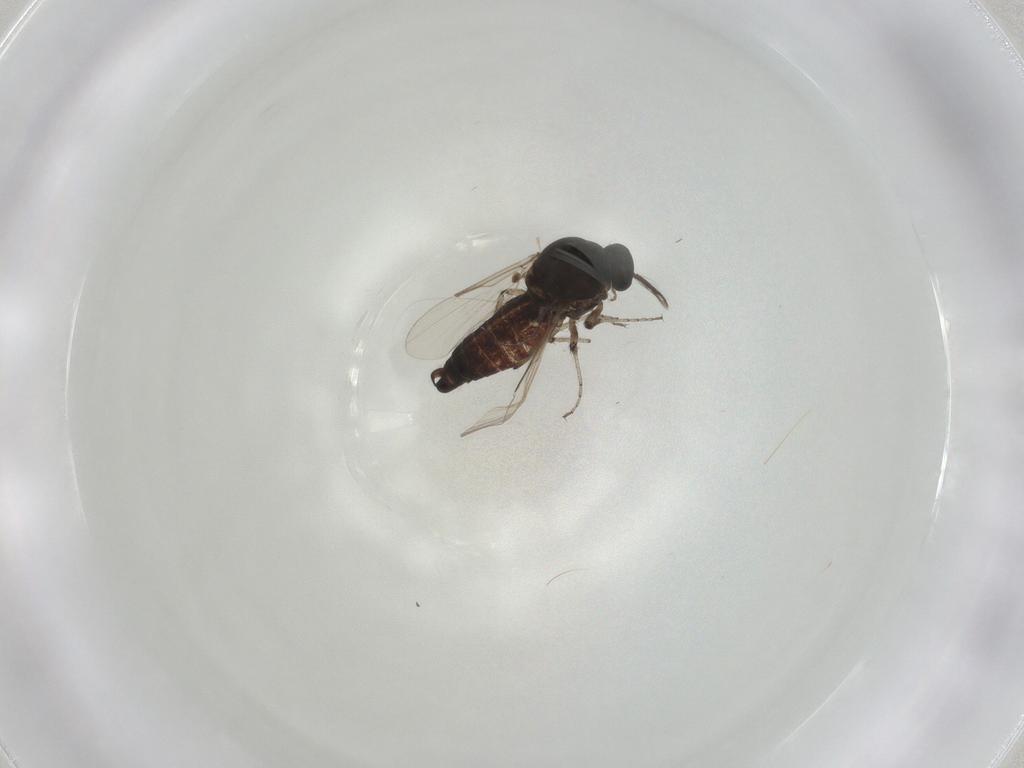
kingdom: Animalia
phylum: Arthropoda
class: Insecta
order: Diptera
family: Ceratopogonidae
